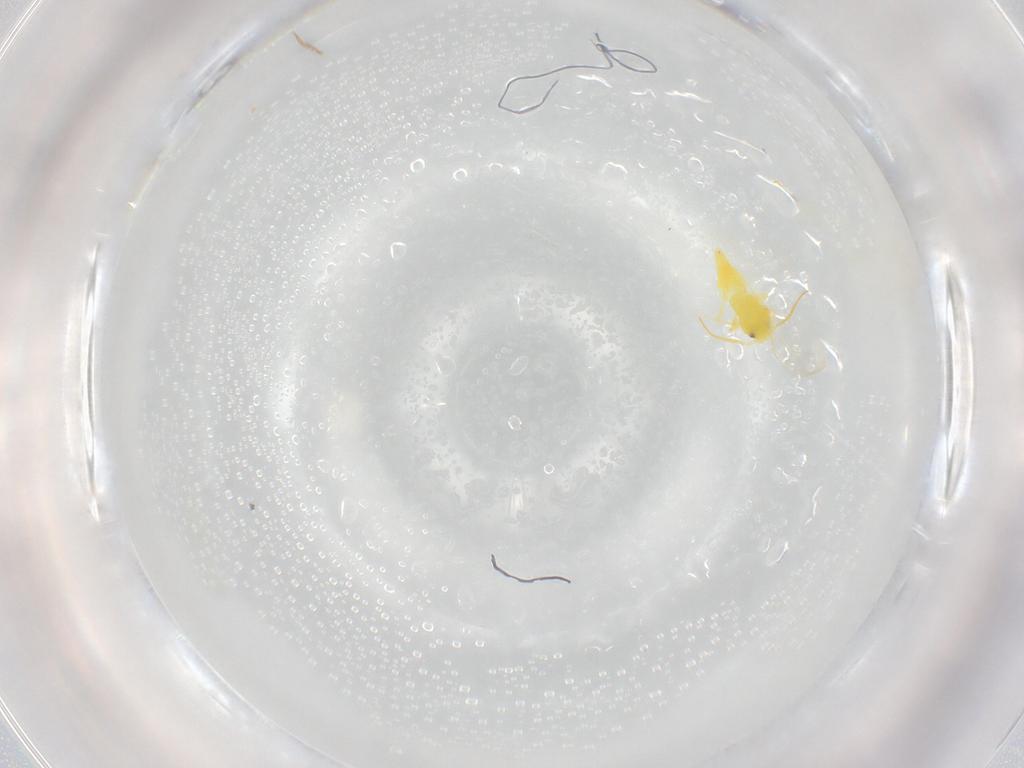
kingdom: Animalia
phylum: Arthropoda
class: Insecta
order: Hemiptera
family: Aleyrodidae
